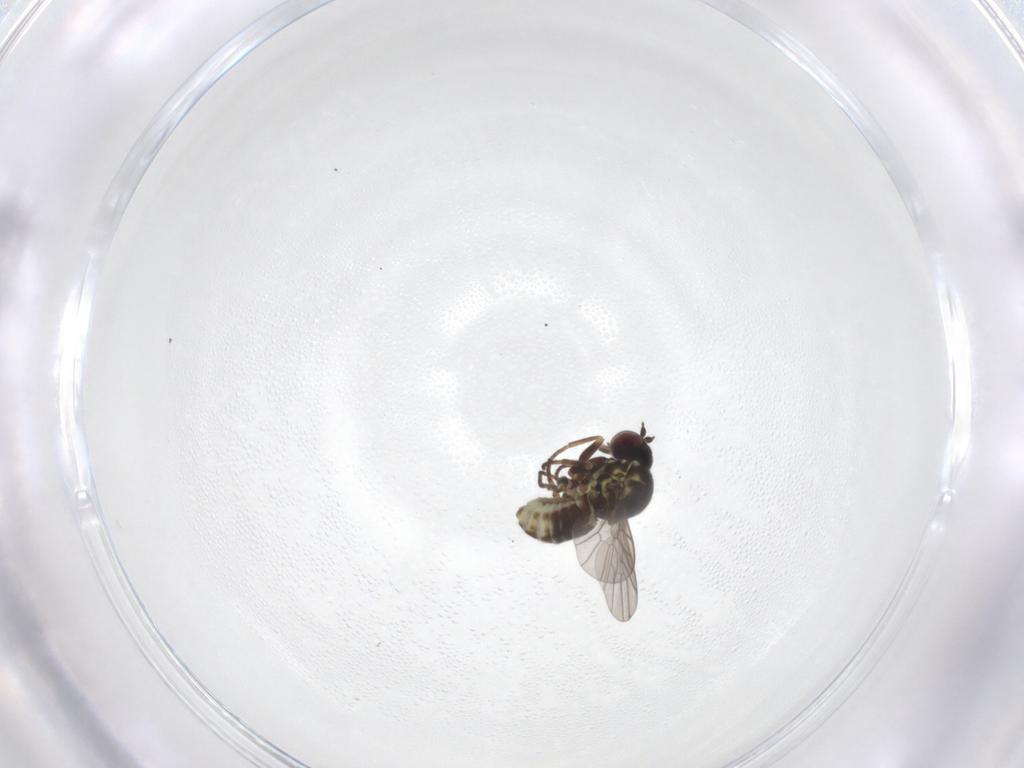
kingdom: Animalia
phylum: Arthropoda
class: Insecta
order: Diptera
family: Bombyliidae
